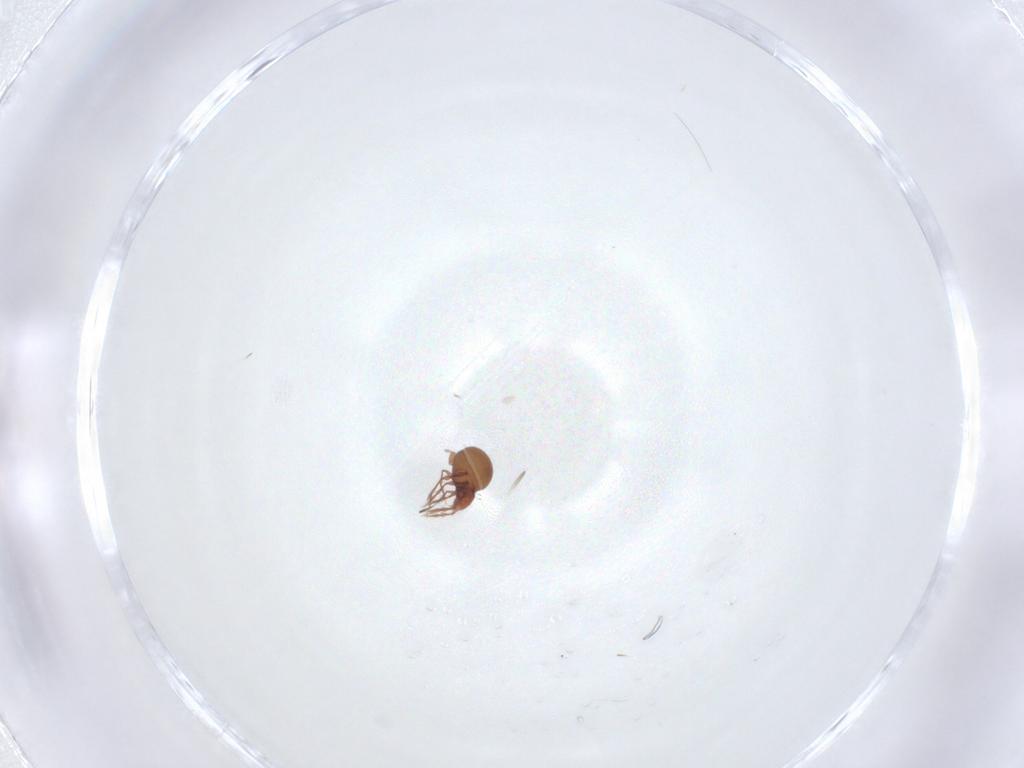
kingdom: Animalia
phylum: Arthropoda
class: Arachnida
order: Sarcoptiformes
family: Oppiidae
